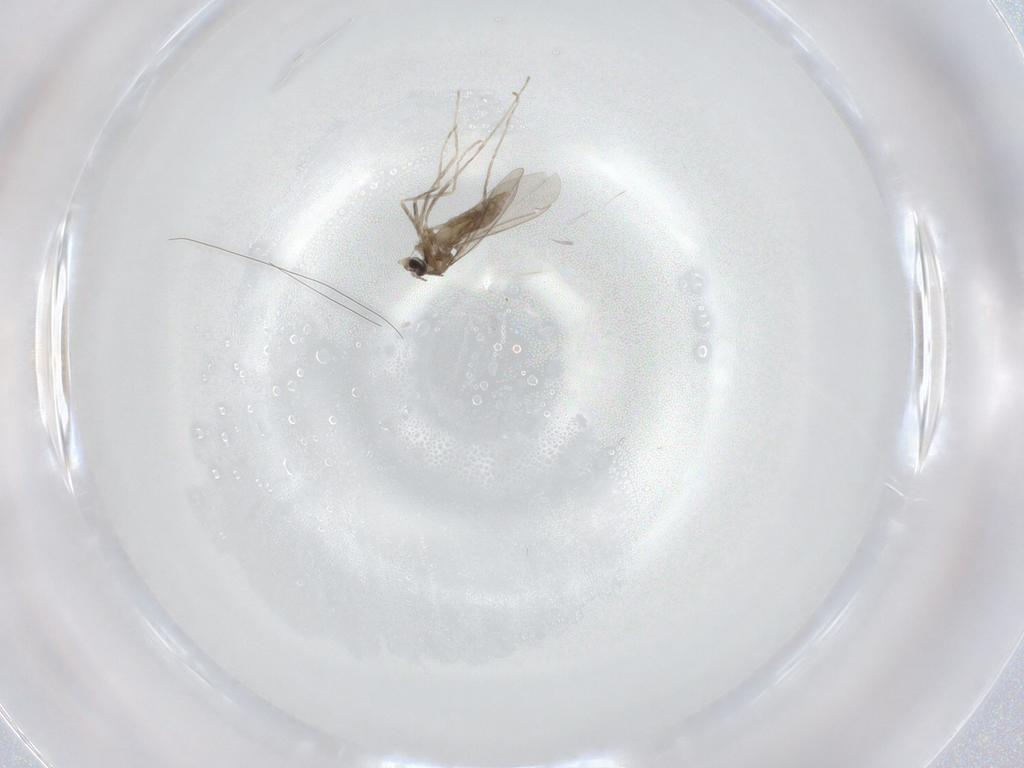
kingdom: Animalia
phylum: Arthropoda
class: Insecta
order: Diptera
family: Cecidomyiidae
